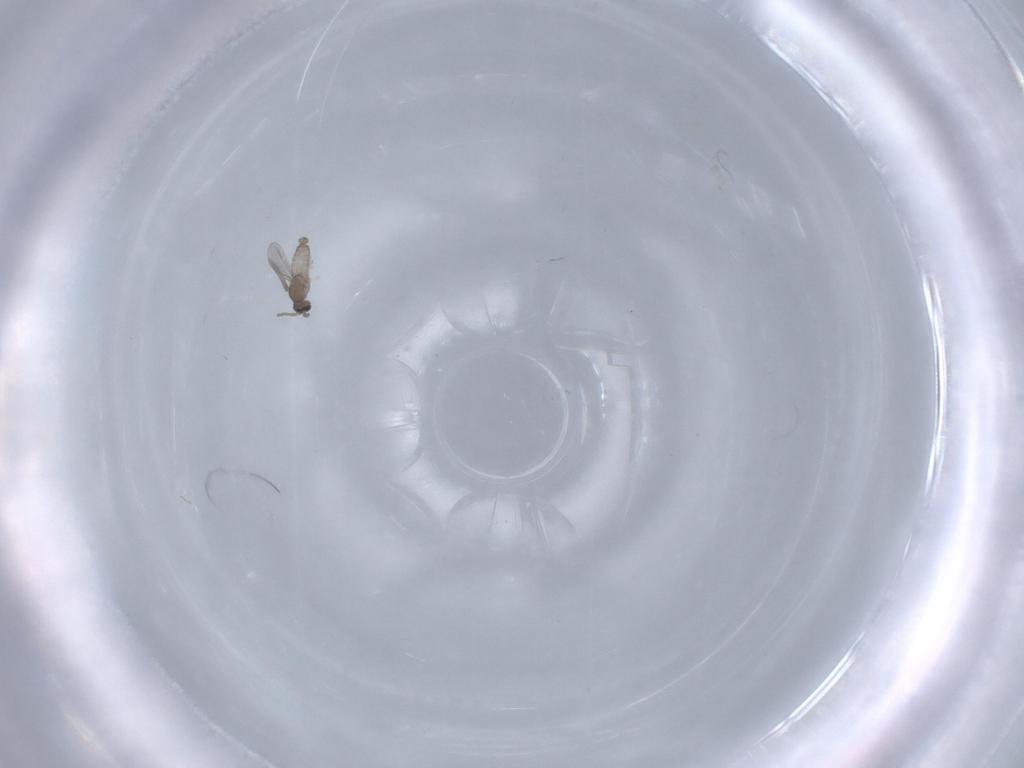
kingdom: Animalia
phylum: Arthropoda
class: Insecta
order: Diptera
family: Cecidomyiidae
